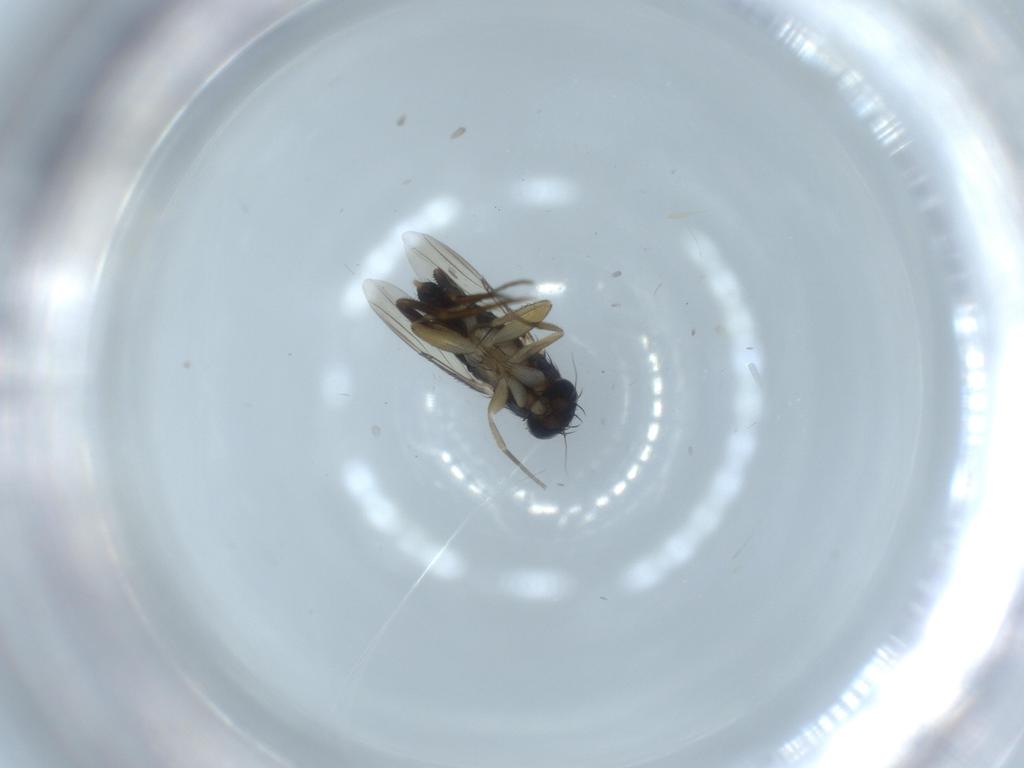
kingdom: Animalia
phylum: Arthropoda
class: Insecta
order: Diptera
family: Phoridae
